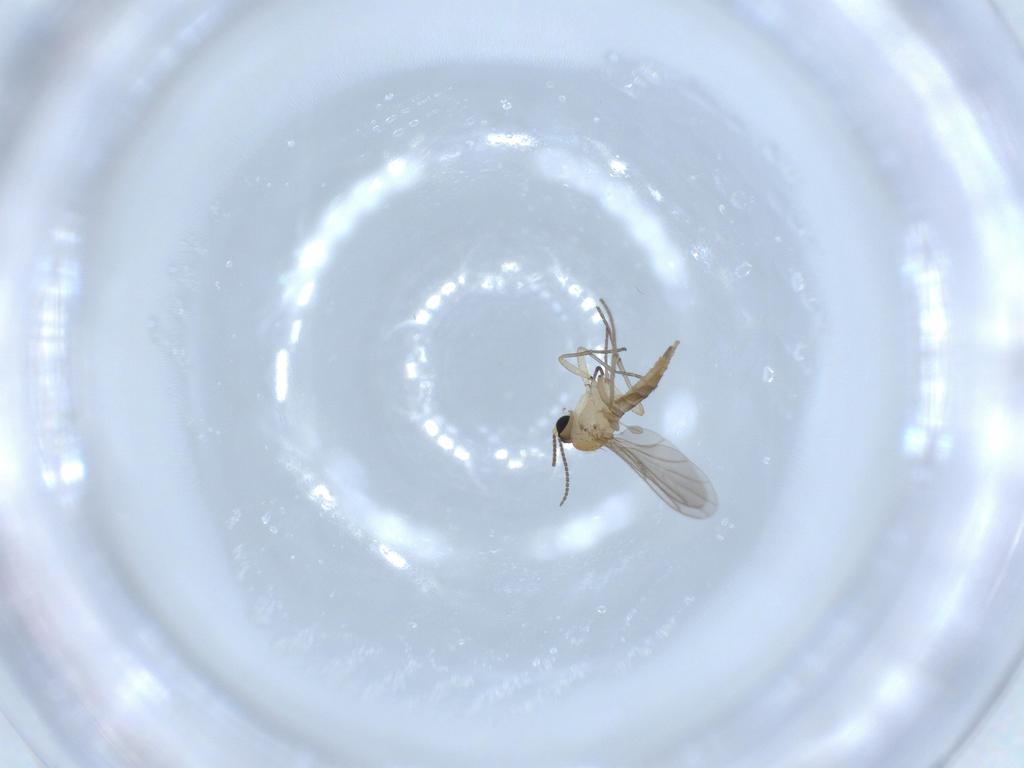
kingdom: Animalia
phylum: Arthropoda
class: Insecta
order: Diptera
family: Sciaridae
